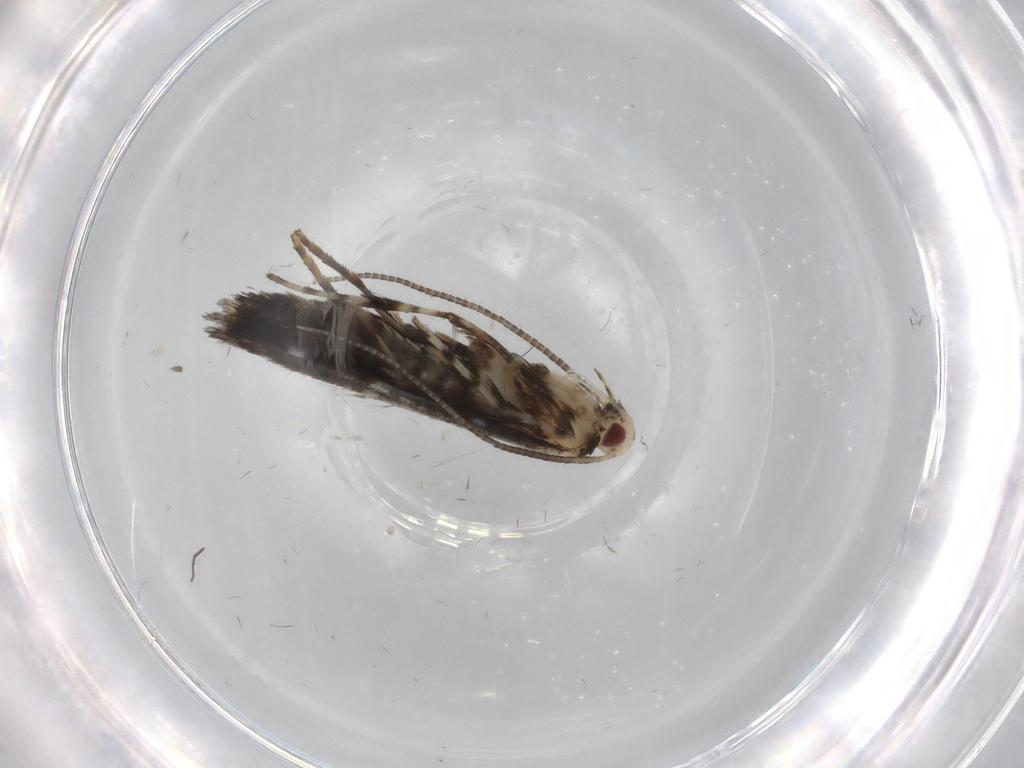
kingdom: Animalia
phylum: Arthropoda
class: Insecta
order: Lepidoptera
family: Gracillariidae
